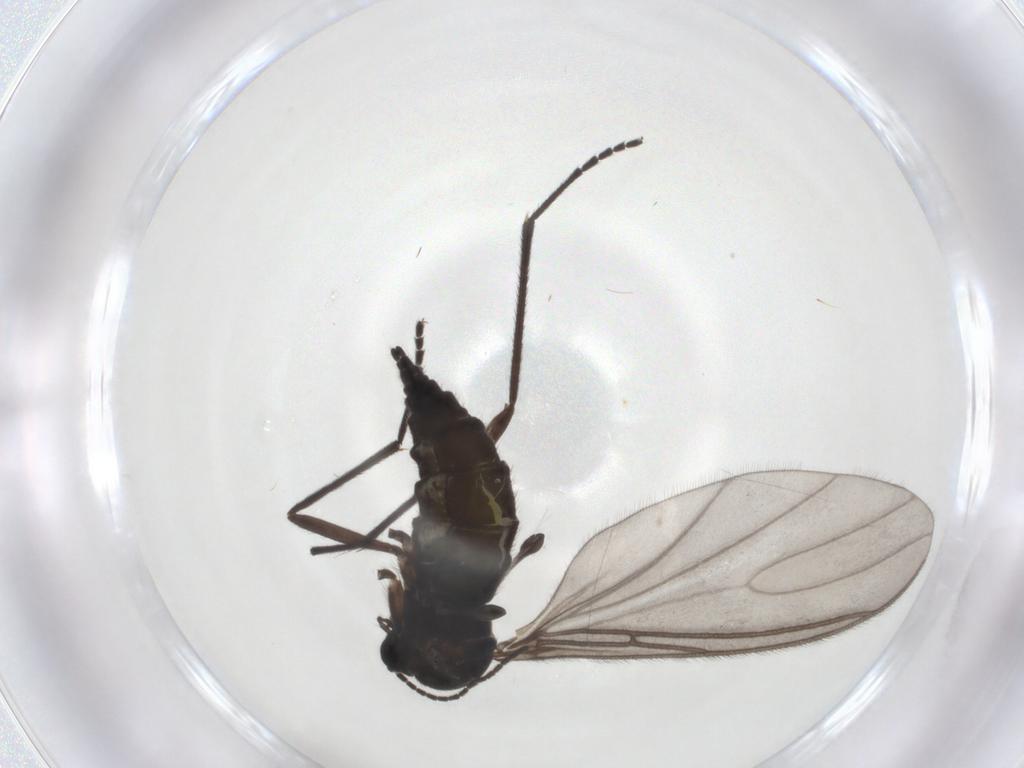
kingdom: Animalia
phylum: Arthropoda
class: Insecta
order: Diptera
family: Sciaridae
